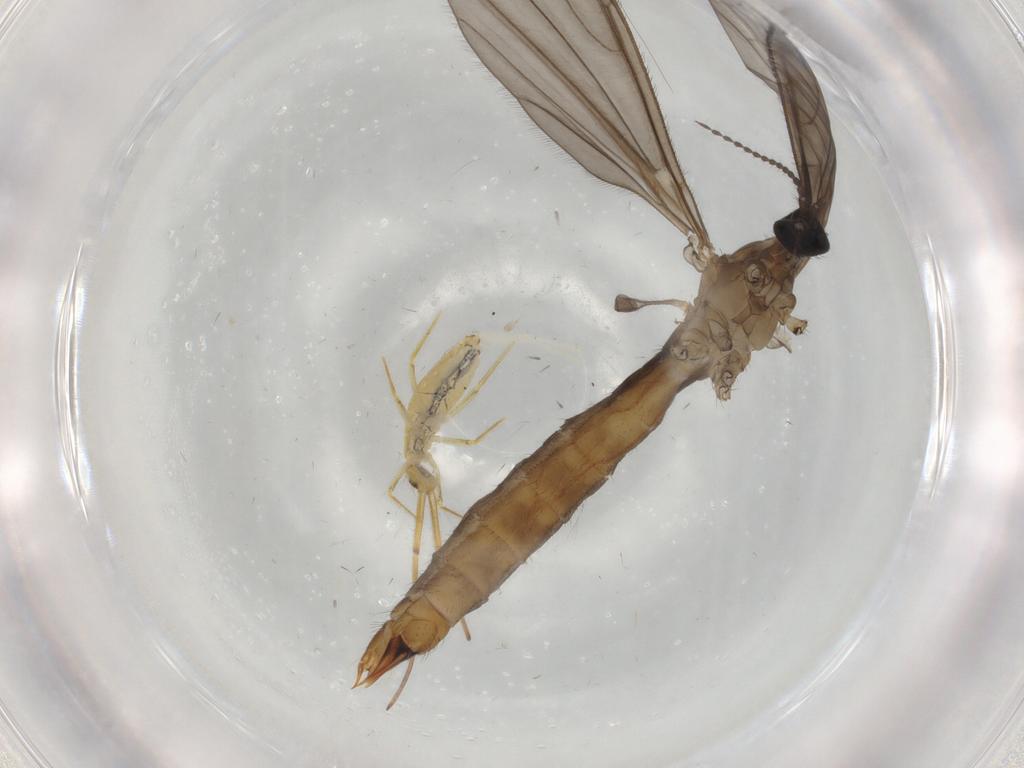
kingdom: Animalia
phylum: Arthropoda
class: Insecta
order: Diptera
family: Limoniidae
